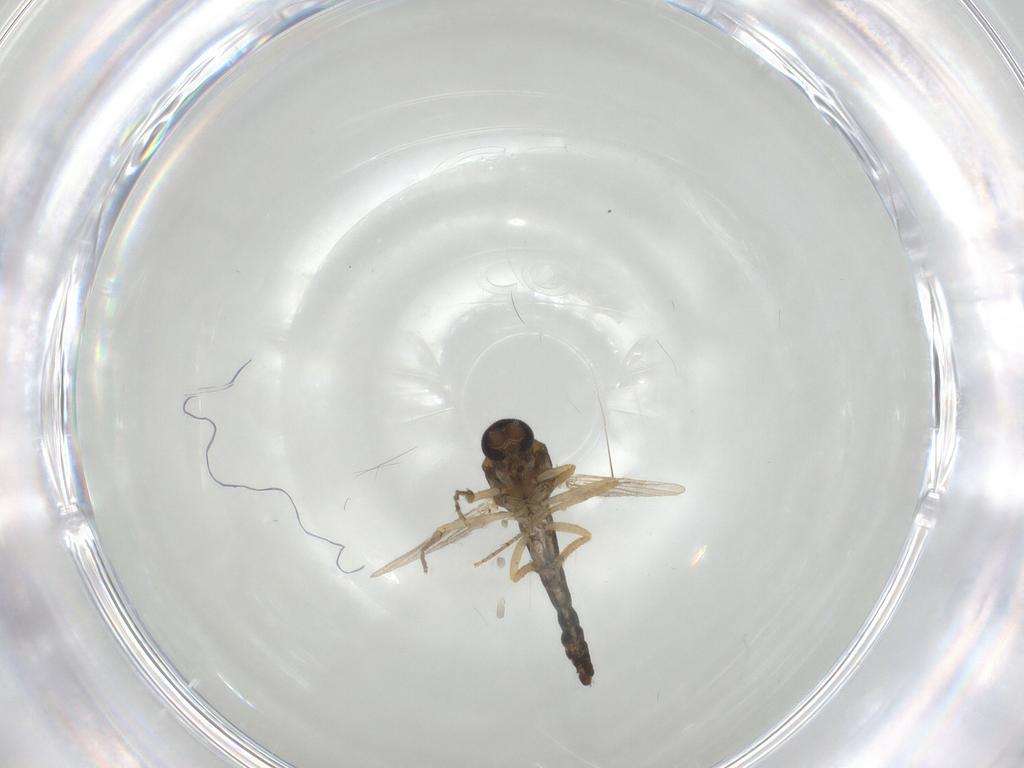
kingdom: Animalia
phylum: Arthropoda
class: Insecta
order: Diptera
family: Ceratopogonidae
